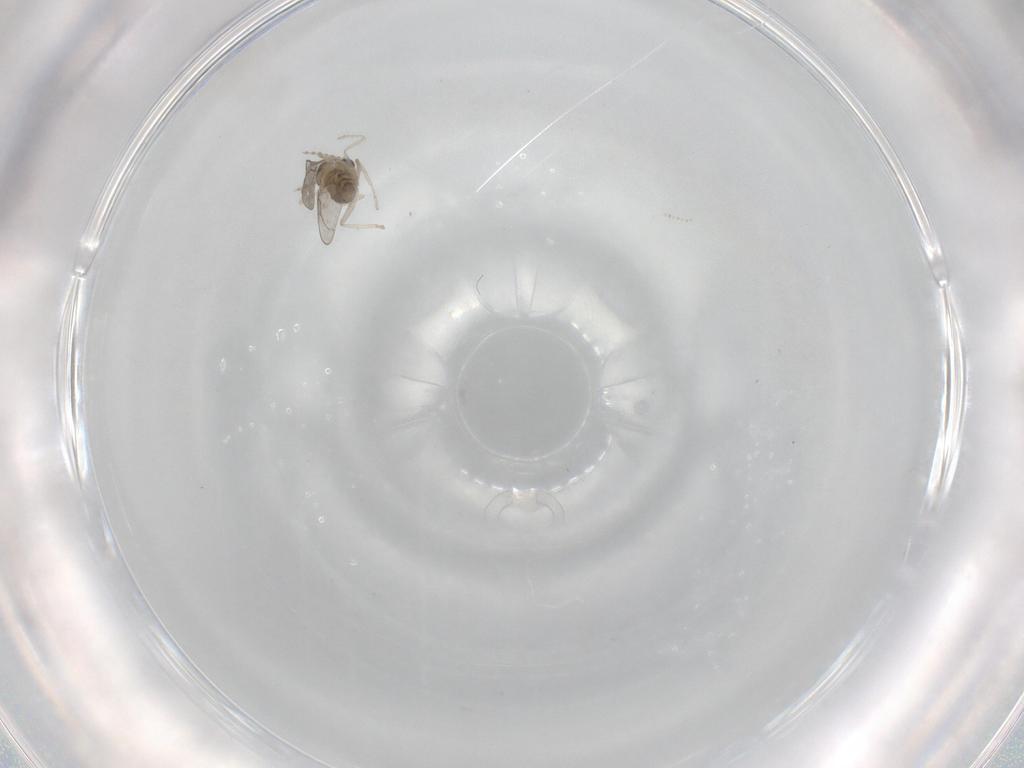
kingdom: Animalia
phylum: Arthropoda
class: Insecta
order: Diptera
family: Cecidomyiidae
